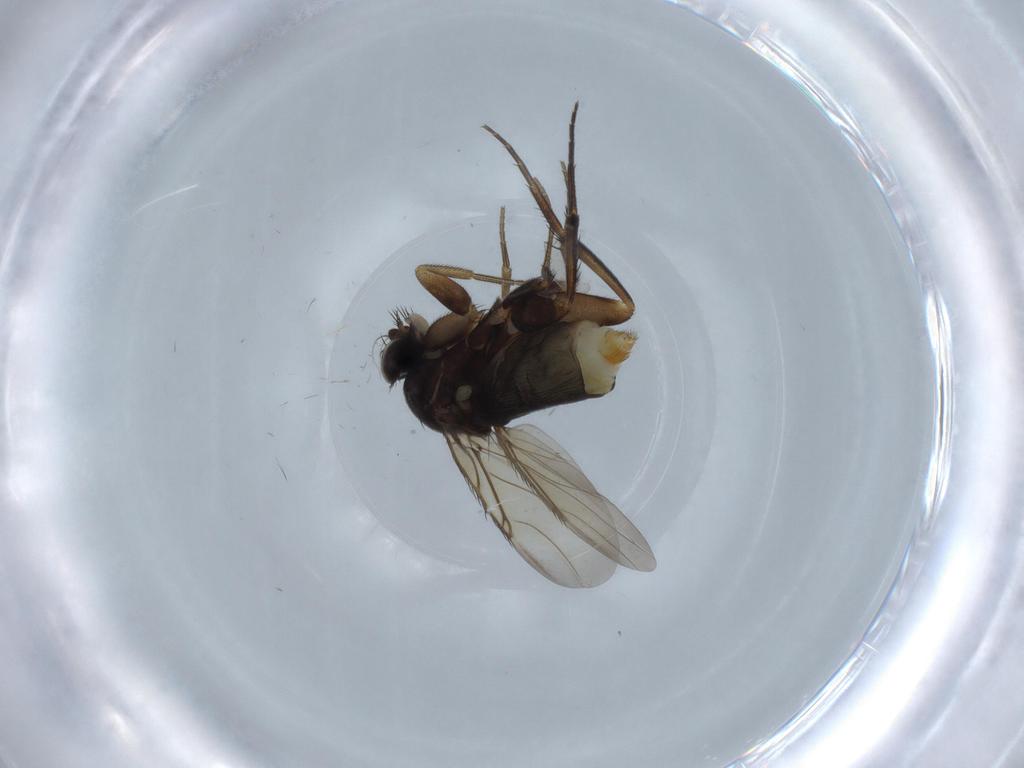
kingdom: Animalia
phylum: Arthropoda
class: Insecta
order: Diptera
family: Phoridae
